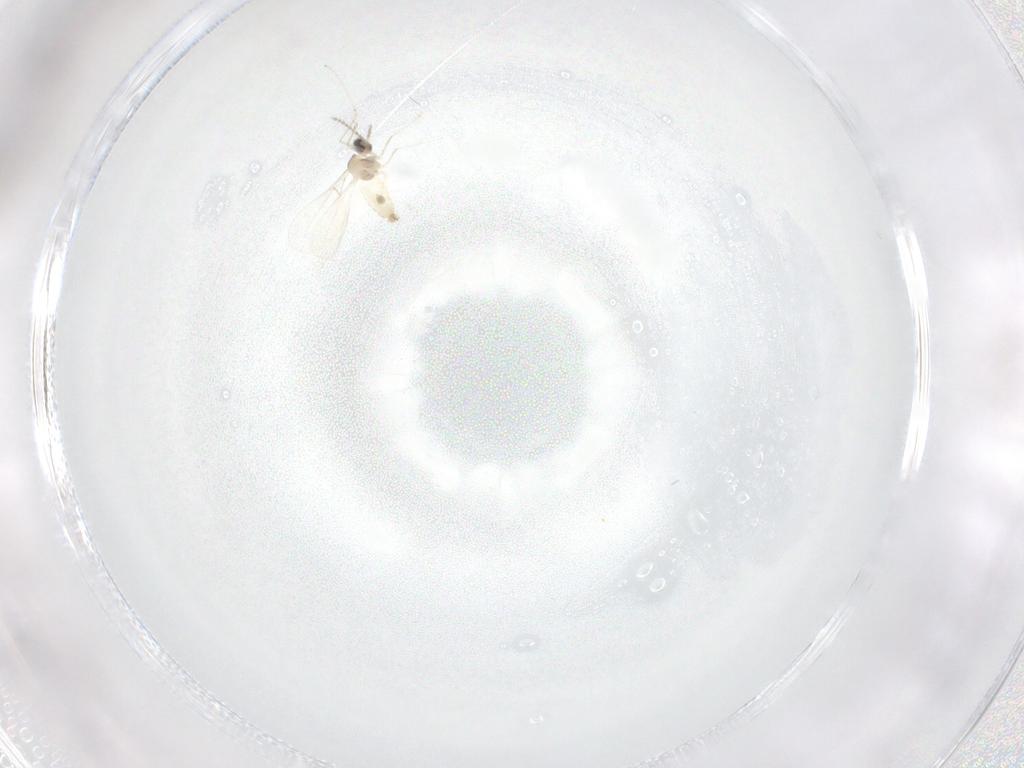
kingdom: Animalia
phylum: Arthropoda
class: Insecta
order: Diptera
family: Cecidomyiidae
